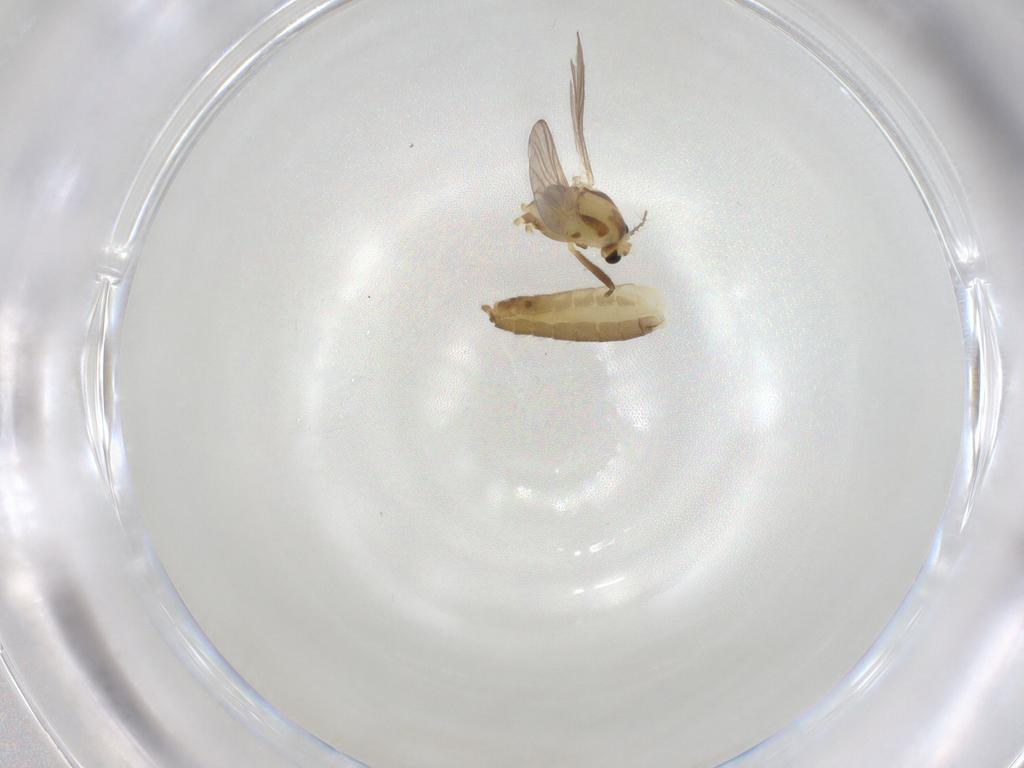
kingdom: Animalia
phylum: Arthropoda
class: Insecta
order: Diptera
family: Chironomidae
